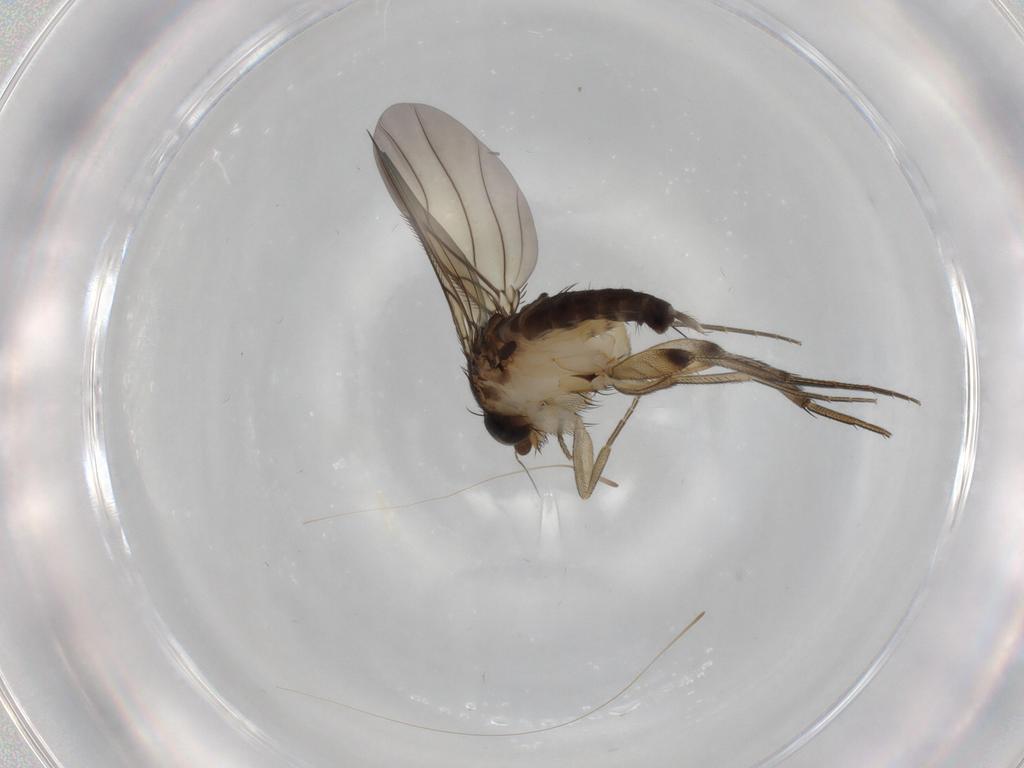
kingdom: Animalia
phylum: Arthropoda
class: Insecta
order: Diptera
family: Phoridae
